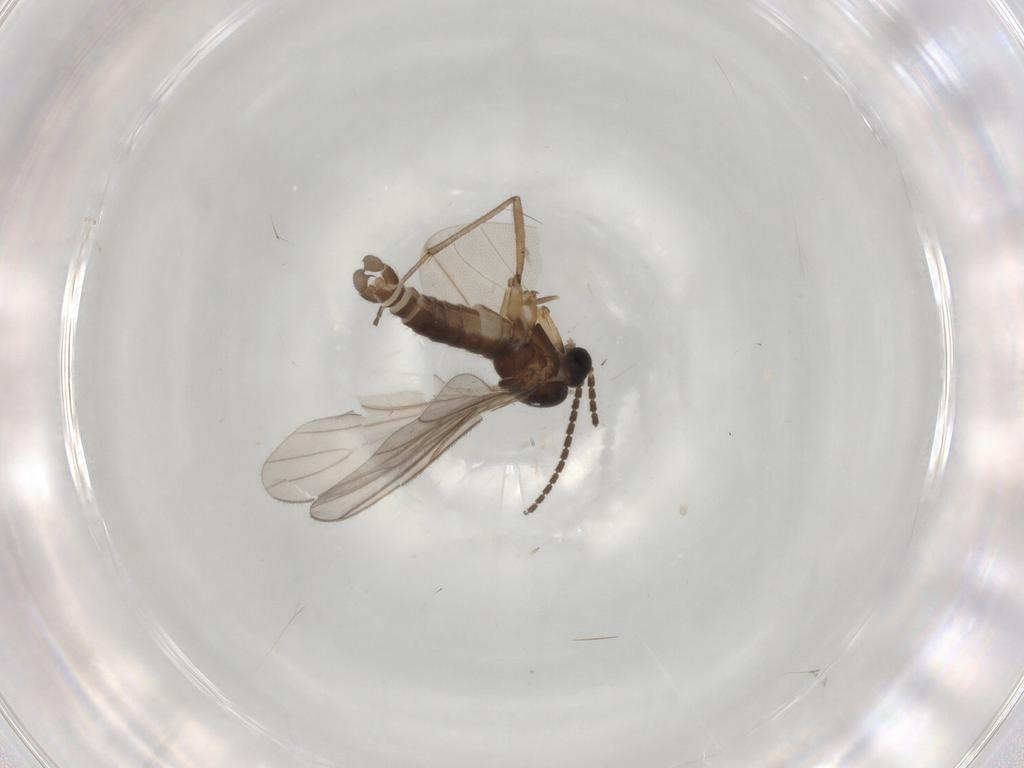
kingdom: Animalia
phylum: Arthropoda
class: Insecta
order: Diptera
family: Sciaridae
